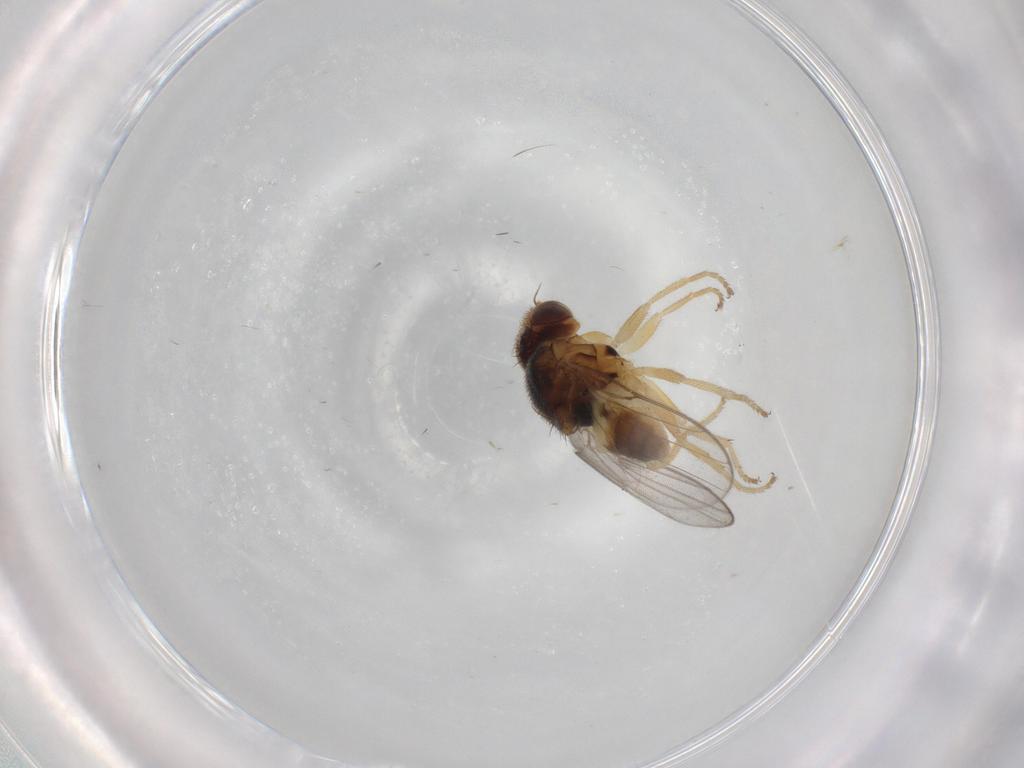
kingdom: Animalia
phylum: Arthropoda
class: Insecta
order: Diptera
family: Chloropidae
